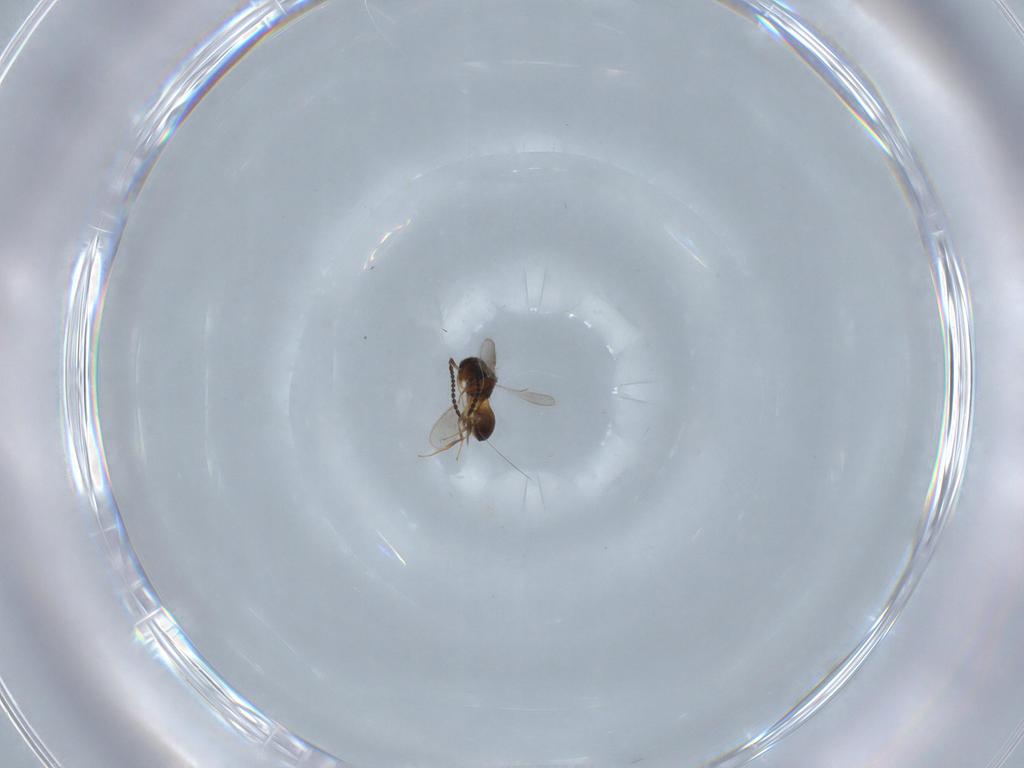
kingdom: Animalia
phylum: Arthropoda
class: Insecta
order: Hymenoptera
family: Scelionidae
